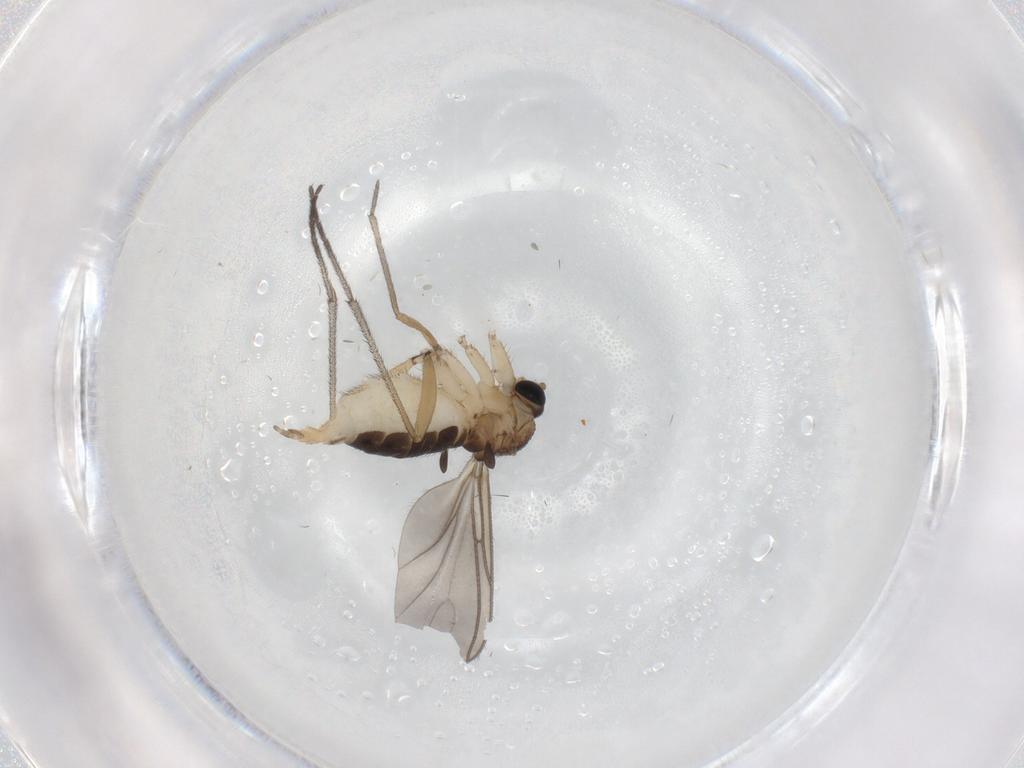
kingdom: Animalia
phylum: Arthropoda
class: Insecta
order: Diptera
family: Sciaridae
